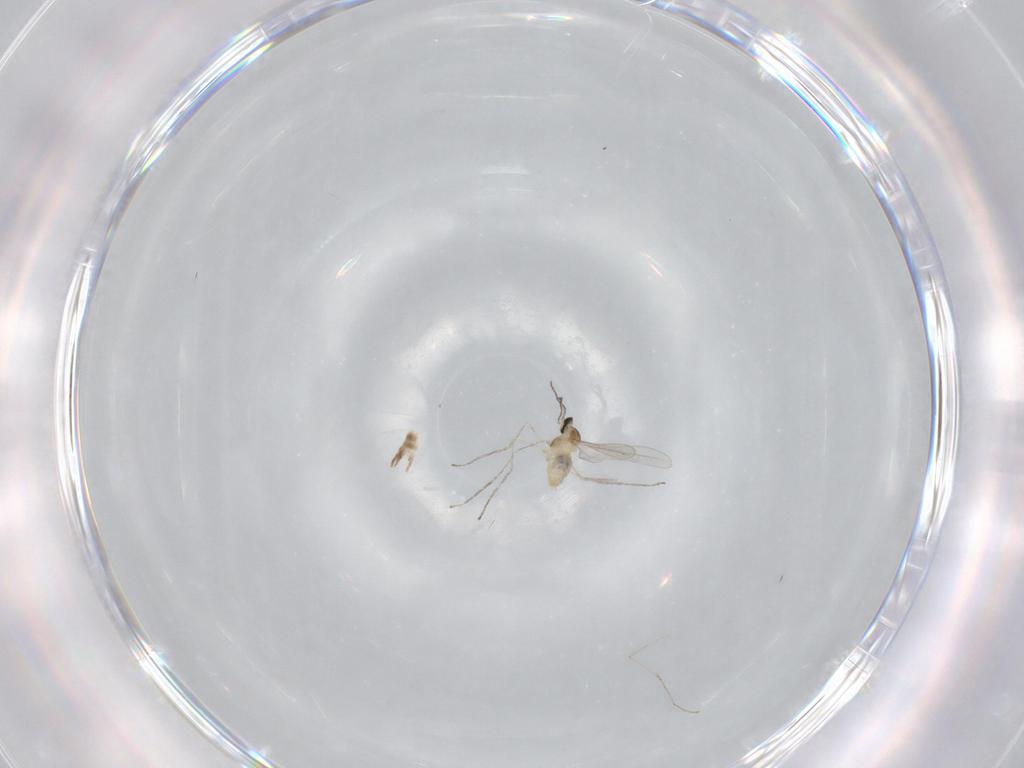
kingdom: Animalia
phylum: Arthropoda
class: Insecta
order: Diptera
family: Cecidomyiidae
